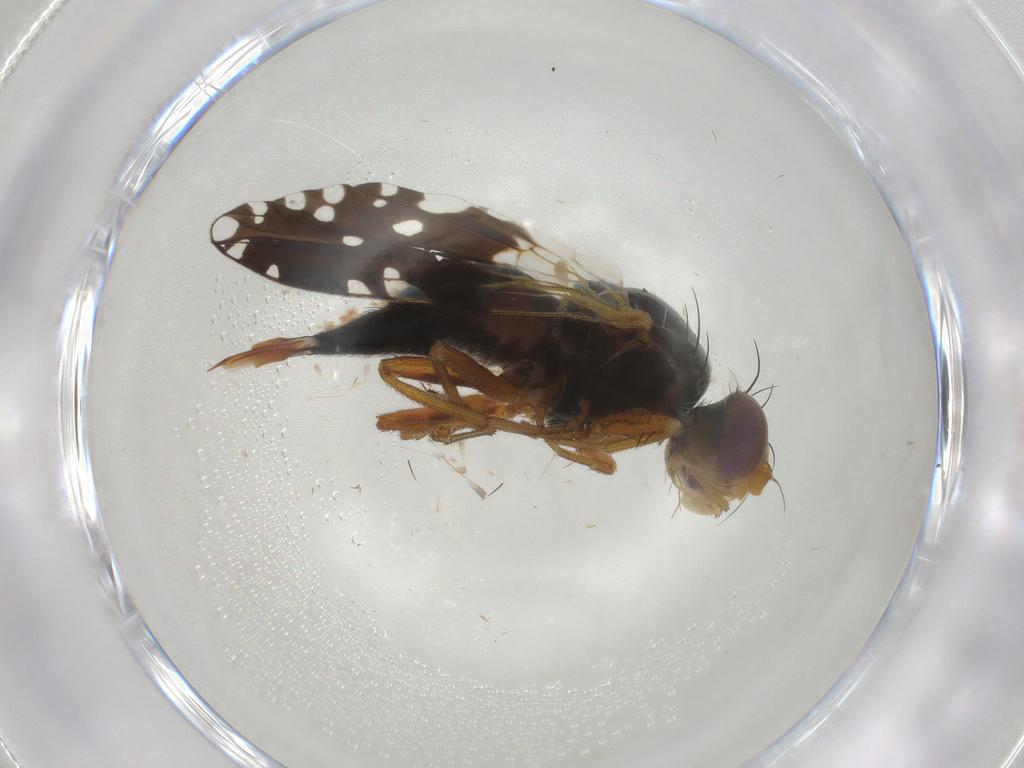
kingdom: Animalia
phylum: Arthropoda
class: Insecta
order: Diptera
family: Tephritidae
